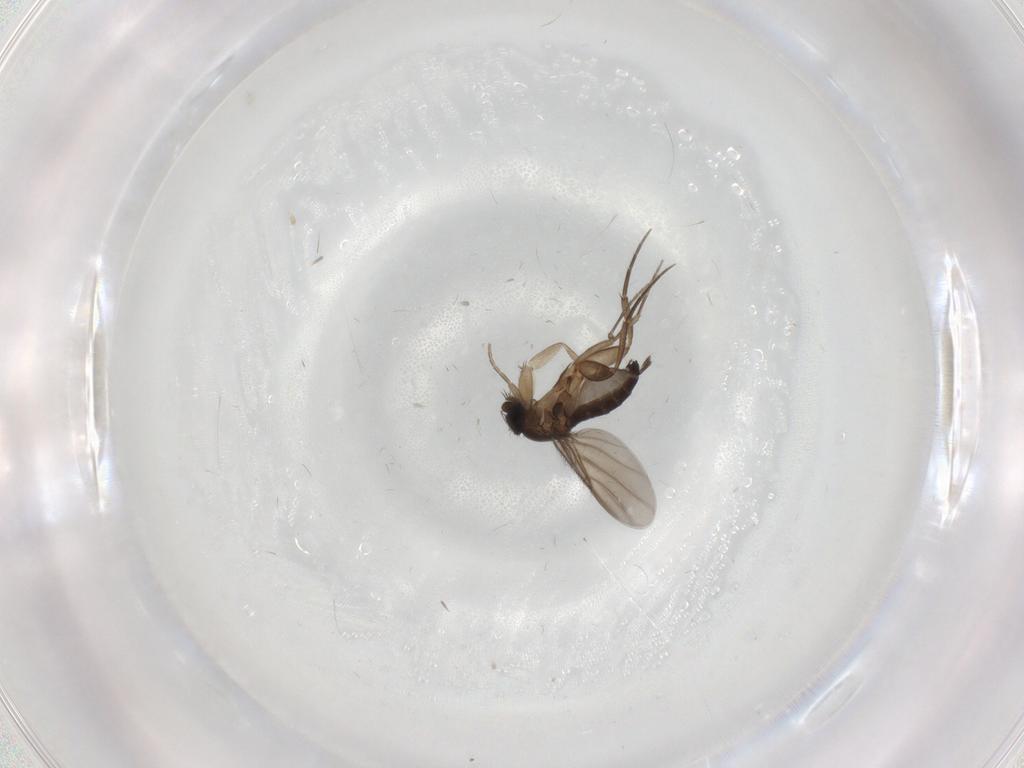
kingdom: Animalia
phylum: Arthropoda
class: Insecta
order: Diptera
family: Phoridae
